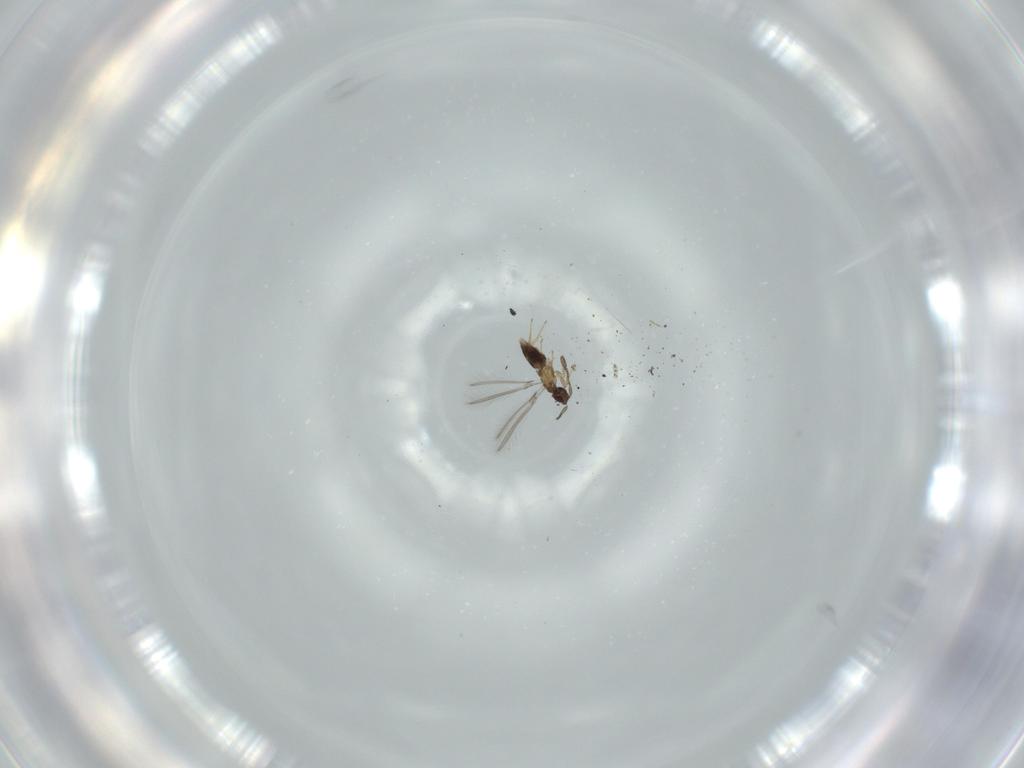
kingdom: Animalia
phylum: Arthropoda
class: Insecta
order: Hymenoptera
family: Mymaridae
